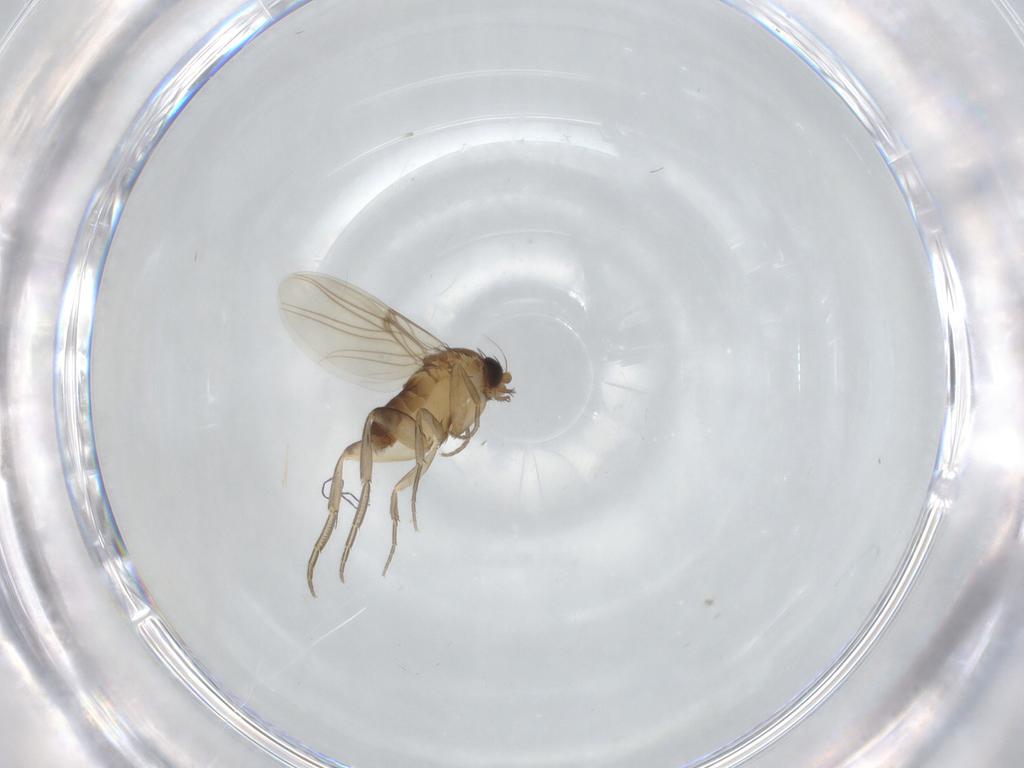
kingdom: Animalia
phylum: Arthropoda
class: Insecta
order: Diptera
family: Phoridae
